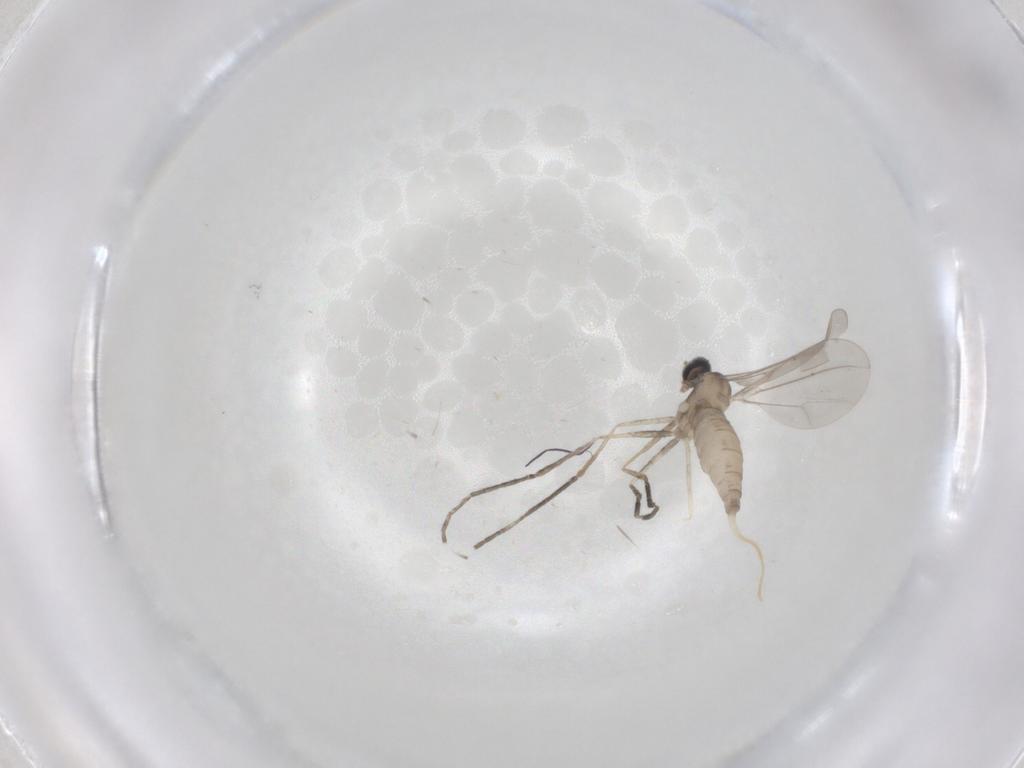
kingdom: Animalia
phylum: Arthropoda
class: Insecta
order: Diptera
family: Cecidomyiidae
